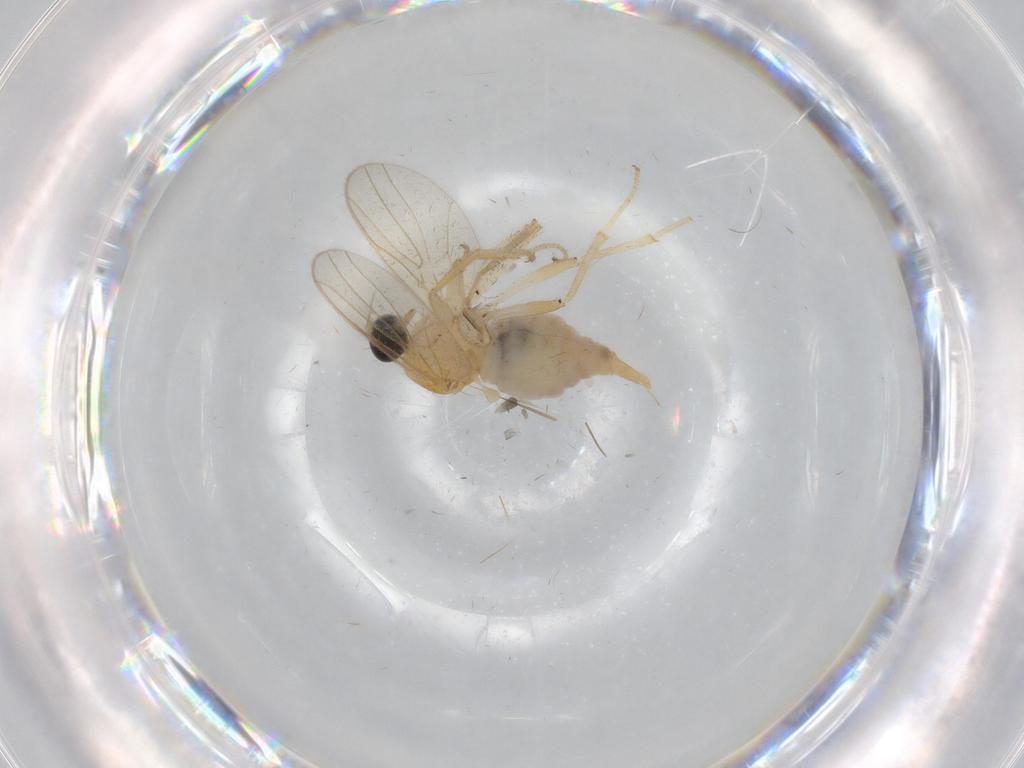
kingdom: Animalia
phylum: Arthropoda
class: Insecta
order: Diptera
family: Hybotidae
